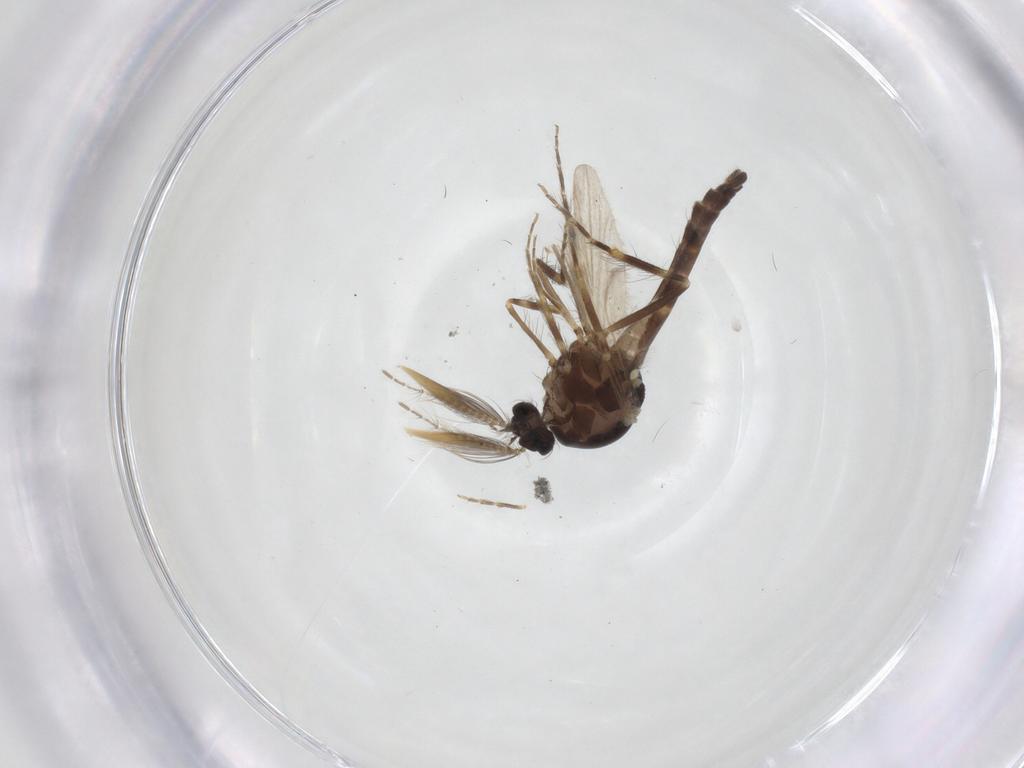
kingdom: Animalia
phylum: Arthropoda
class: Insecta
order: Diptera
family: Ceratopogonidae
